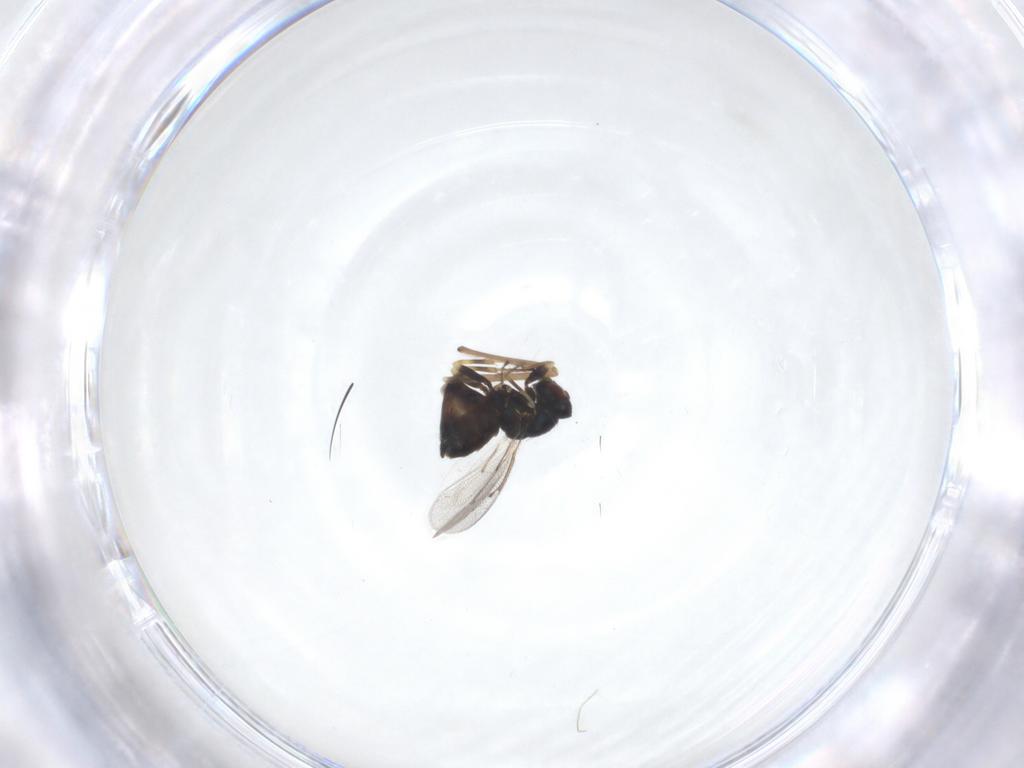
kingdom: Animalia
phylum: Arthropoda
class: Insecta
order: Hymenoptera
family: Eulophidae
